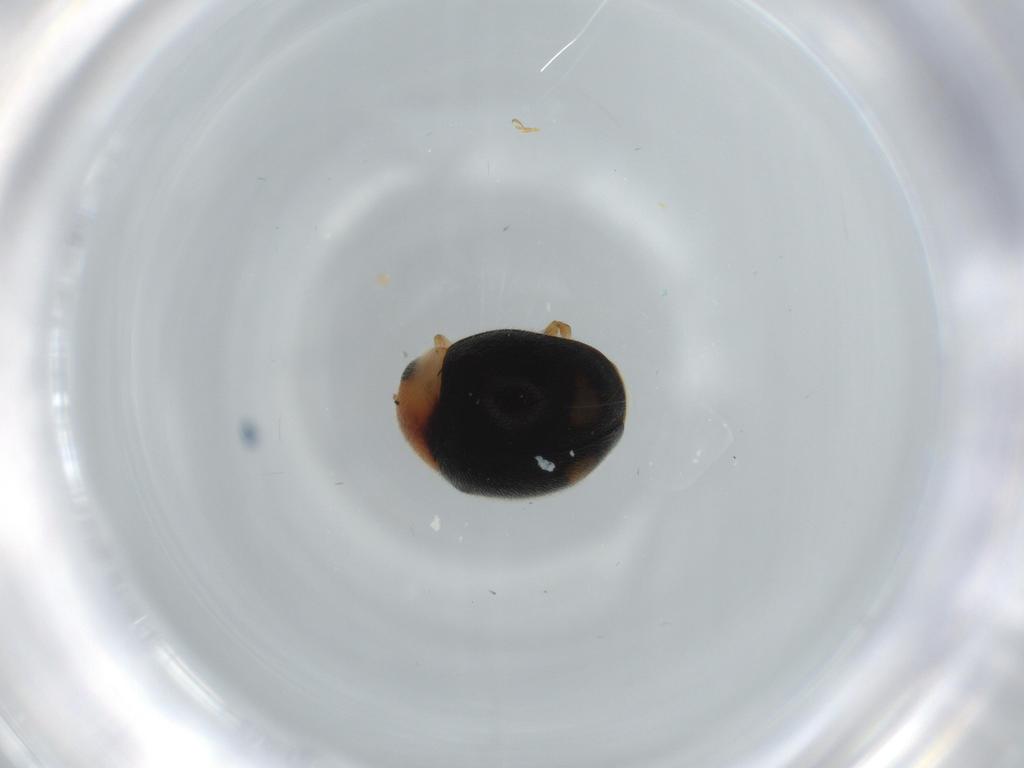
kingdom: Animalia
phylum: Arthropoda
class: Insecta
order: Coleoptera
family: Coccinellidae
